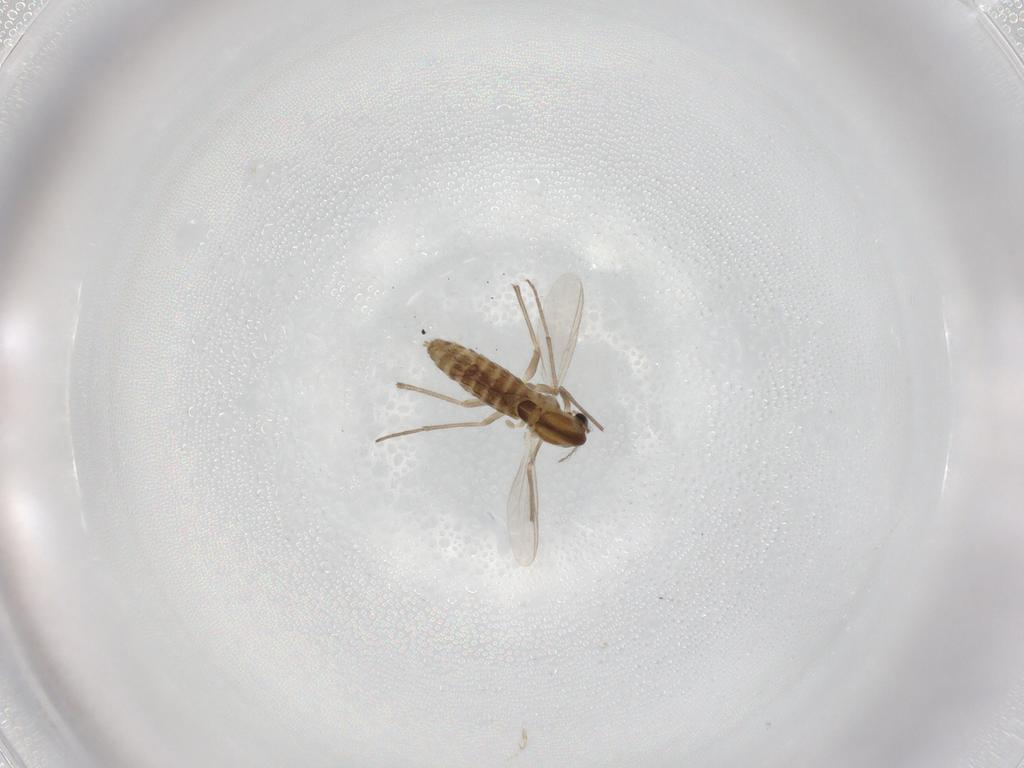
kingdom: Animalia
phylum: Arthropoda
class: Insecta
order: Diptera
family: Chironomidae
